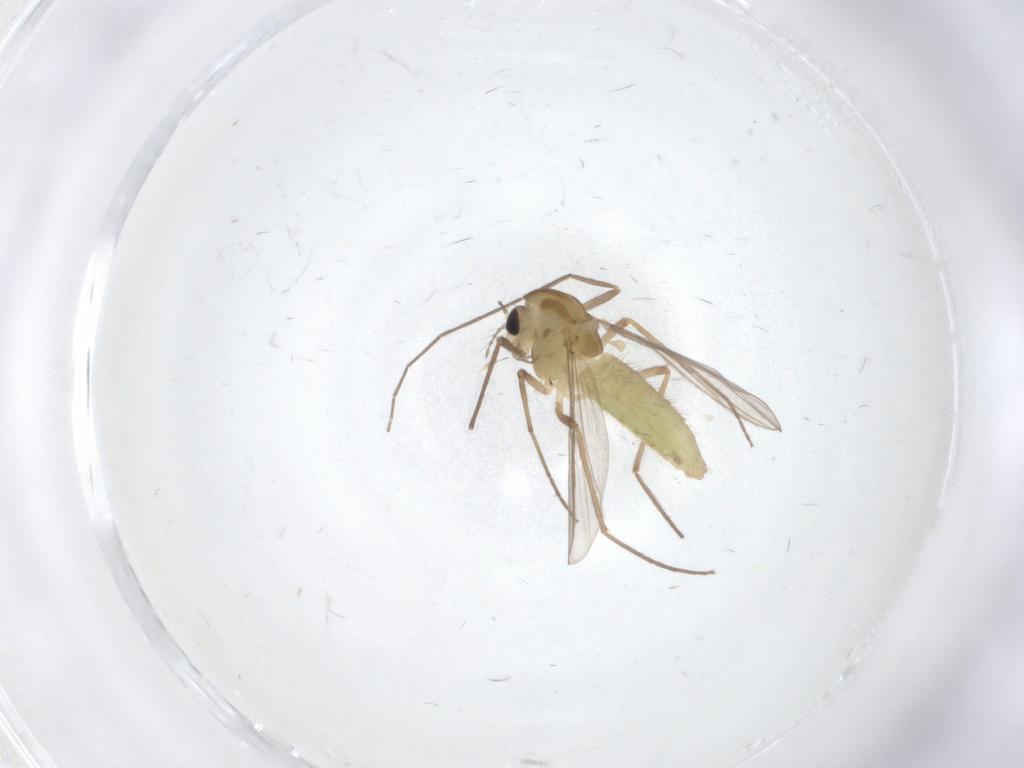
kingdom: Animalia
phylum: Arthropoda
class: Insecta
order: Diptera
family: Chironomidae
